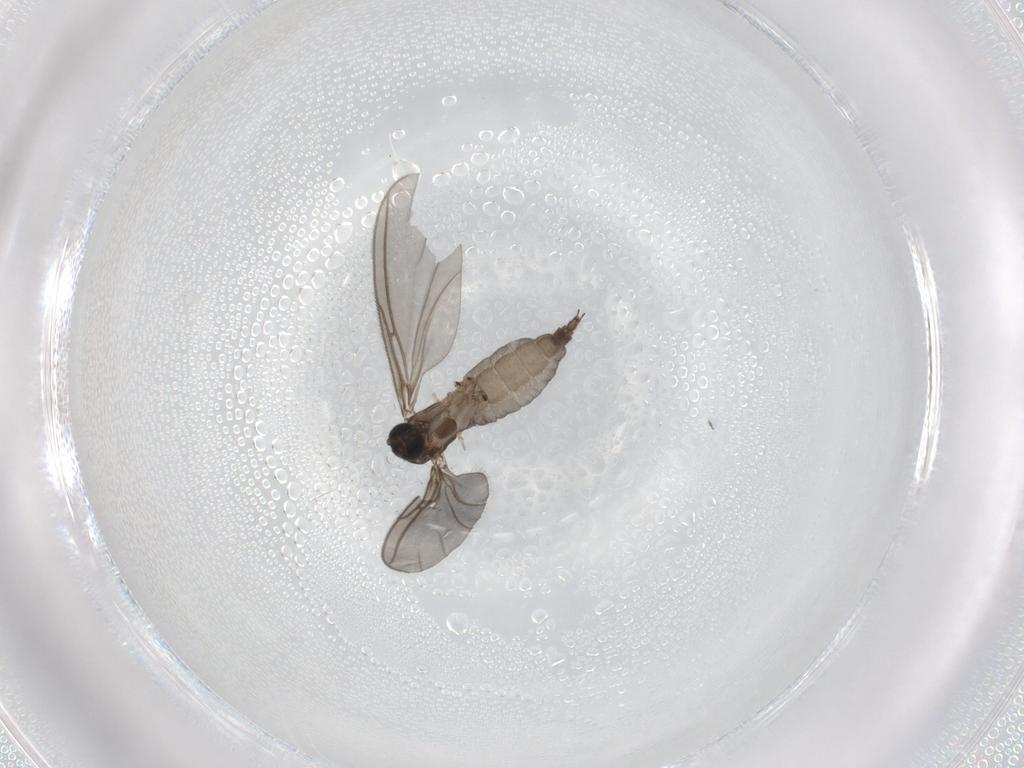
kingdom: Animalia
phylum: Arthropoda
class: Insecta
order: Diptera
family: Sciaridae
